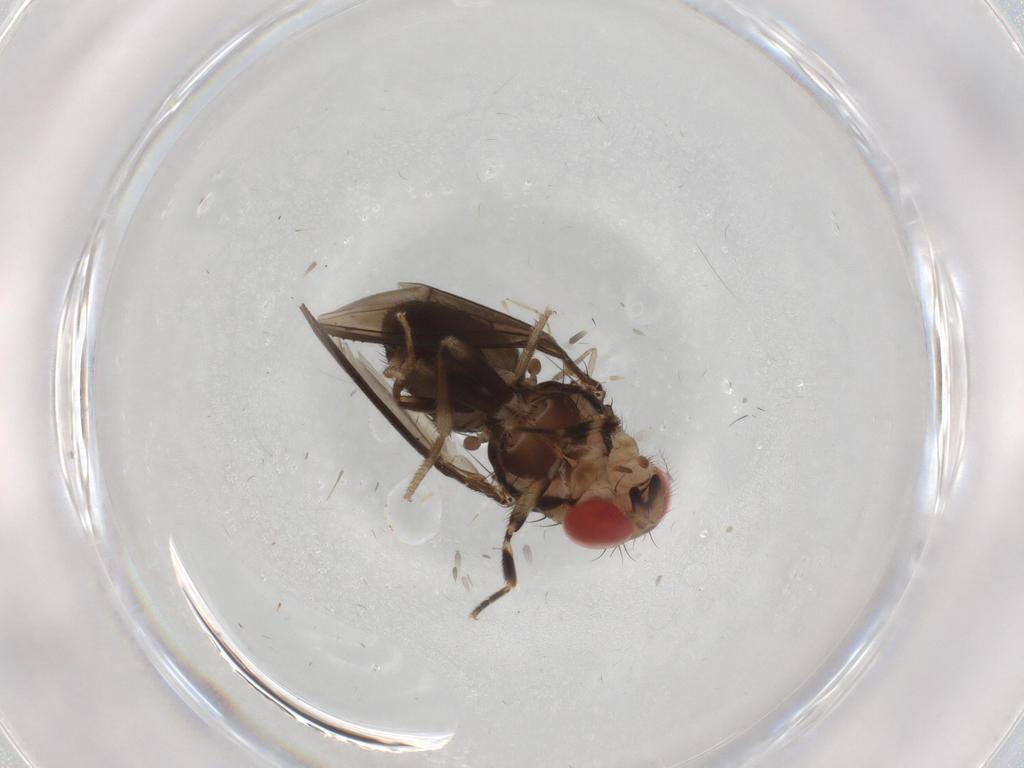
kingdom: Animalia
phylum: Arthropoda
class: Insecta
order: Diptera
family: Drosophilidae
